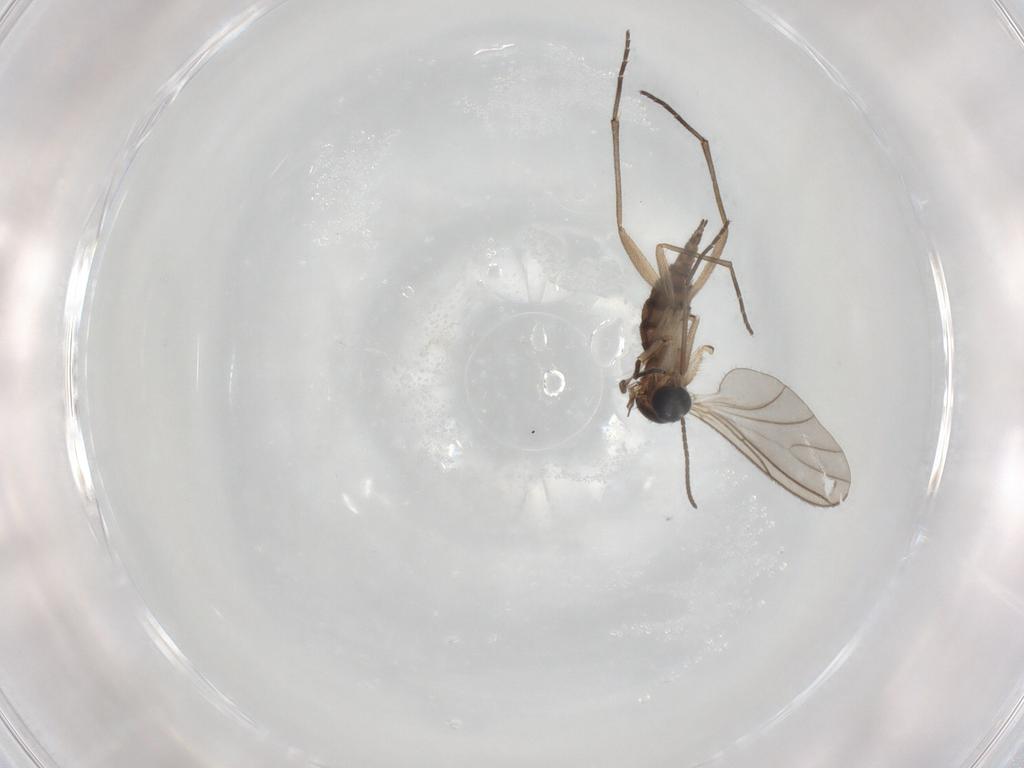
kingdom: Animalia
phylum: Arthropoda
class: Insecta
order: Diptera
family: Sciaridae
